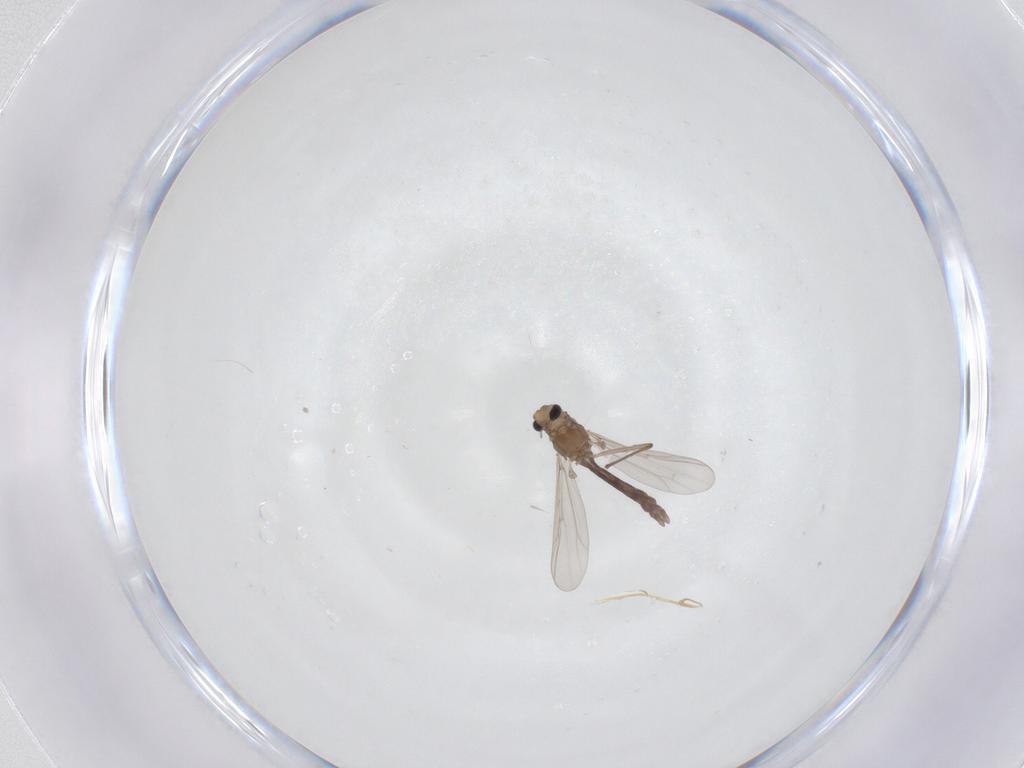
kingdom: Animalia
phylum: Arthropoda
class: Insecta
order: Diptera
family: Chironomidae
